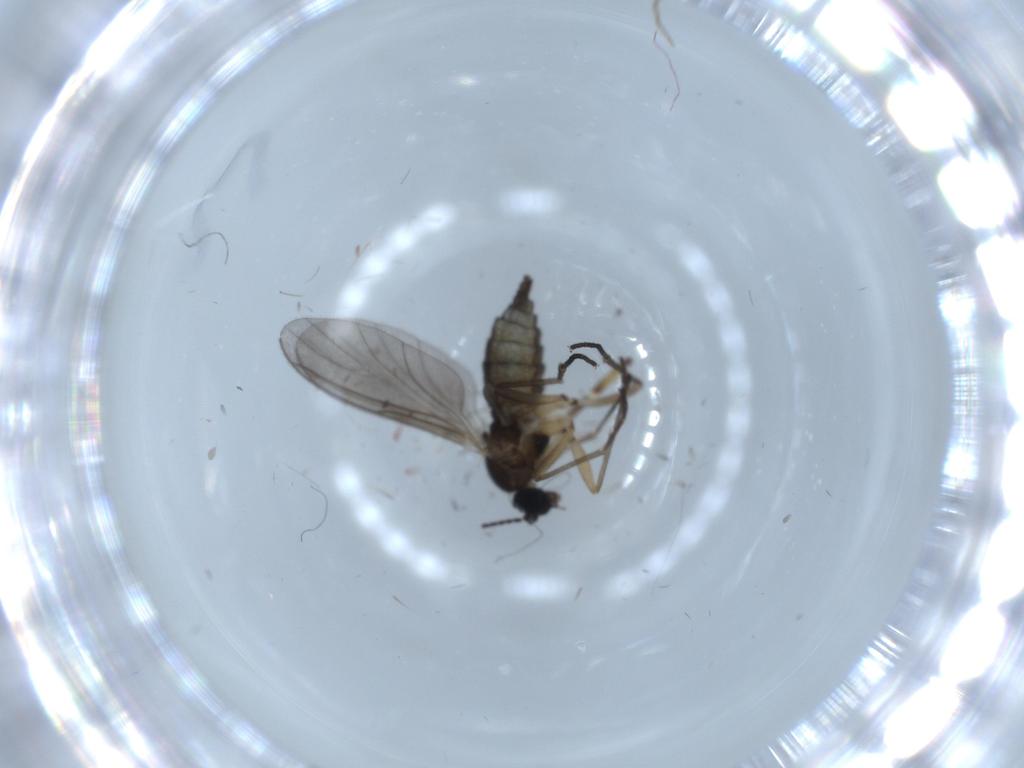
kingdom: Animalia
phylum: Arthropoda
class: Insecta
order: Diptera
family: Sciaridae
